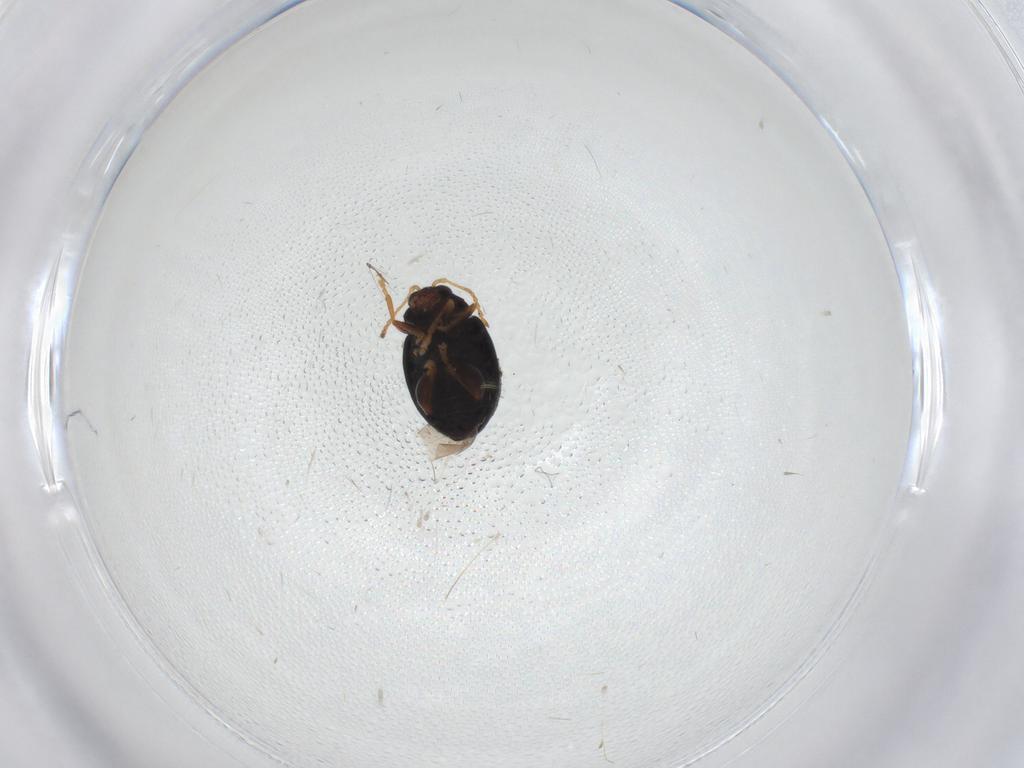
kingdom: Animalia
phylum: Arthropoda
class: Insecta
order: Coleoptera
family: Chrysomelidae
